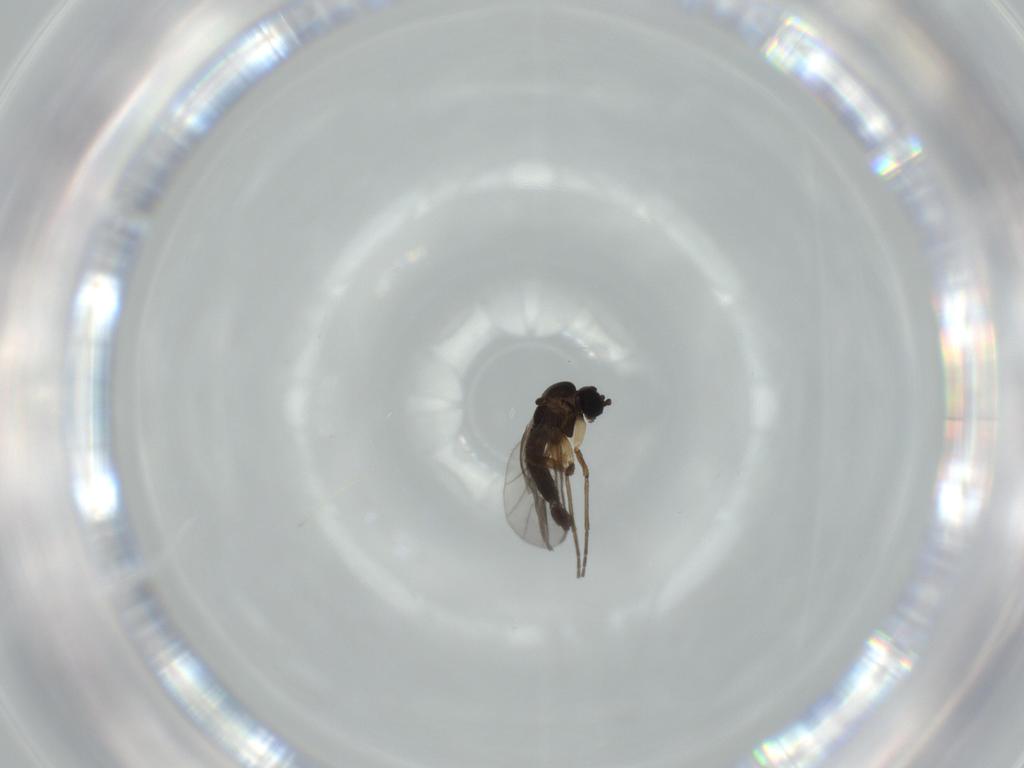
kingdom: Animalia
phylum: Arthropoda
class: Insecta
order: Diptera
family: Sciaridae
